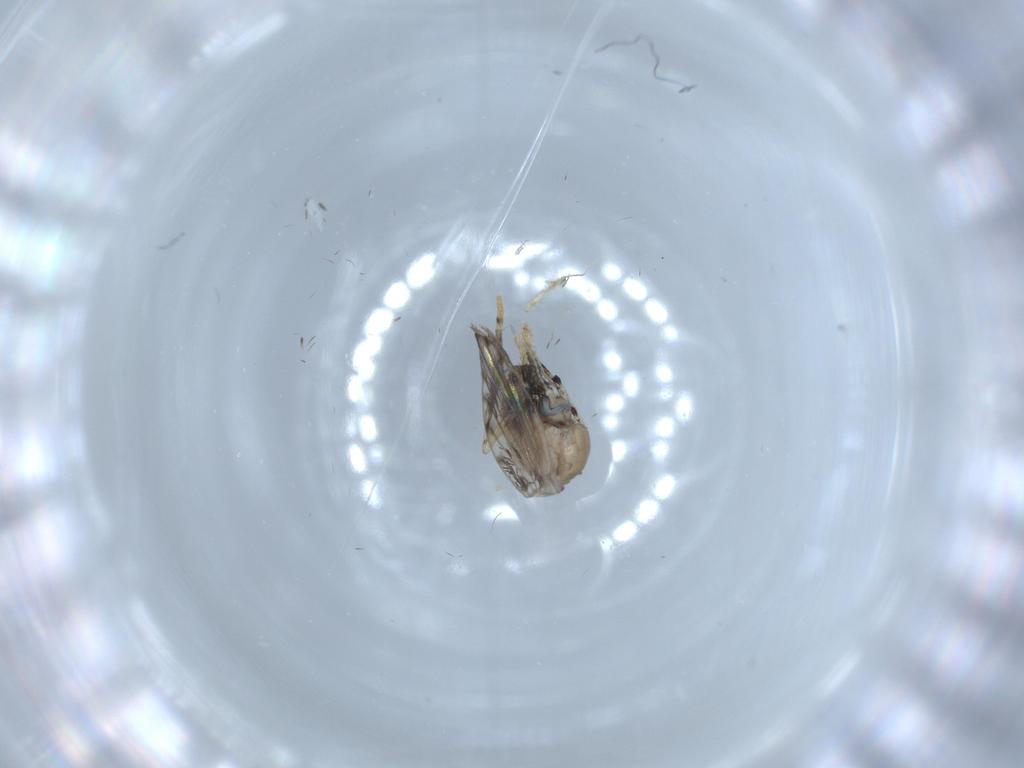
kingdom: Animalia
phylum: Arthropoda
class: Insecta
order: Diptera
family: Psychodidae
